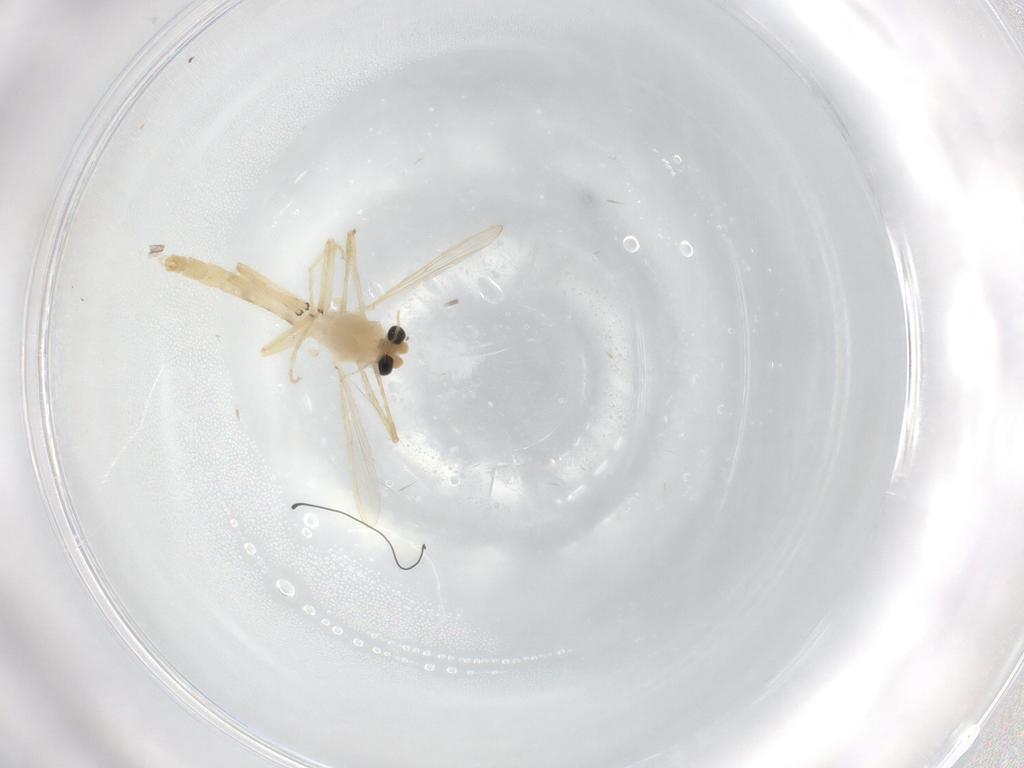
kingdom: Animalia
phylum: Arthropoda
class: Insecta
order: Diptera
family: Chironomidae
